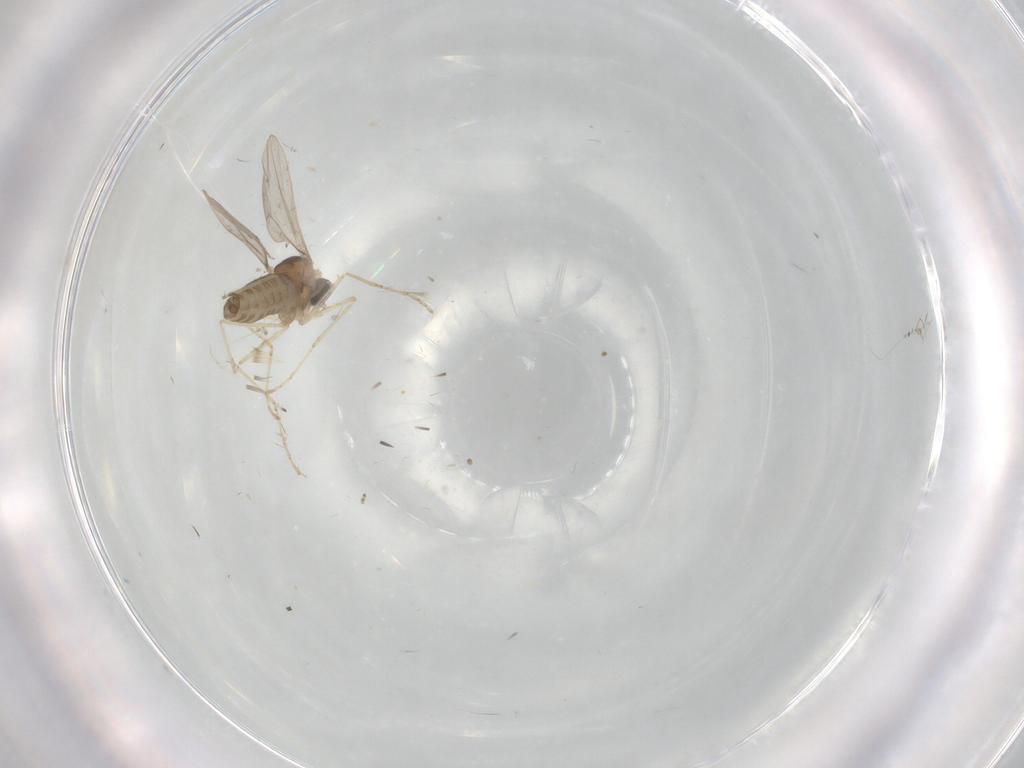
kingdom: Animalia
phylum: Arthropoda
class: Insecta
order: Diptera
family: Cecidomyiidae
